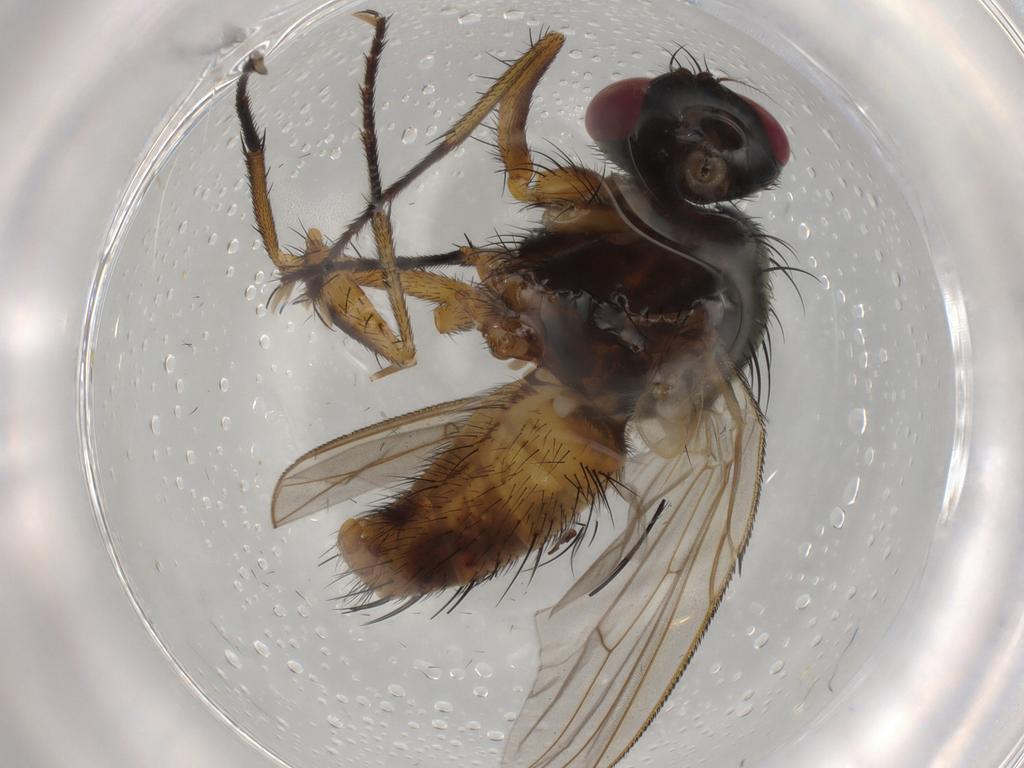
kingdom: Animalia
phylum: Arthropoda
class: Insecta
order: Diptera
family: Muscidae
